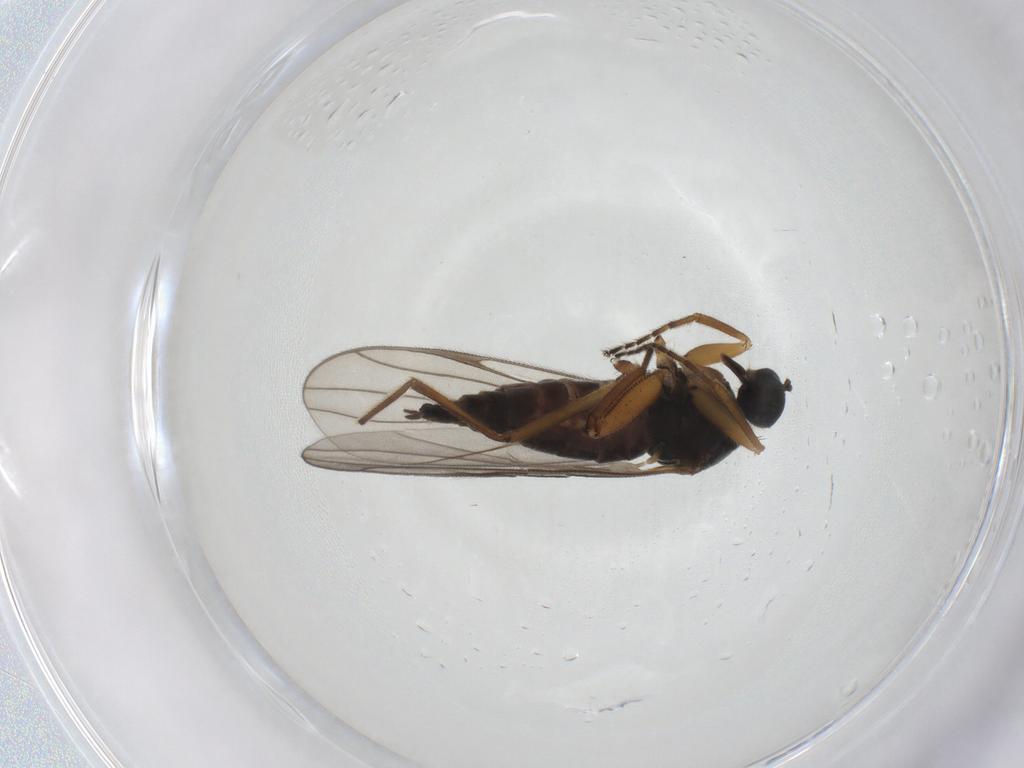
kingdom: Animalia
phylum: Arthropoda
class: Insecta
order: Diptera
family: Hybotidae
